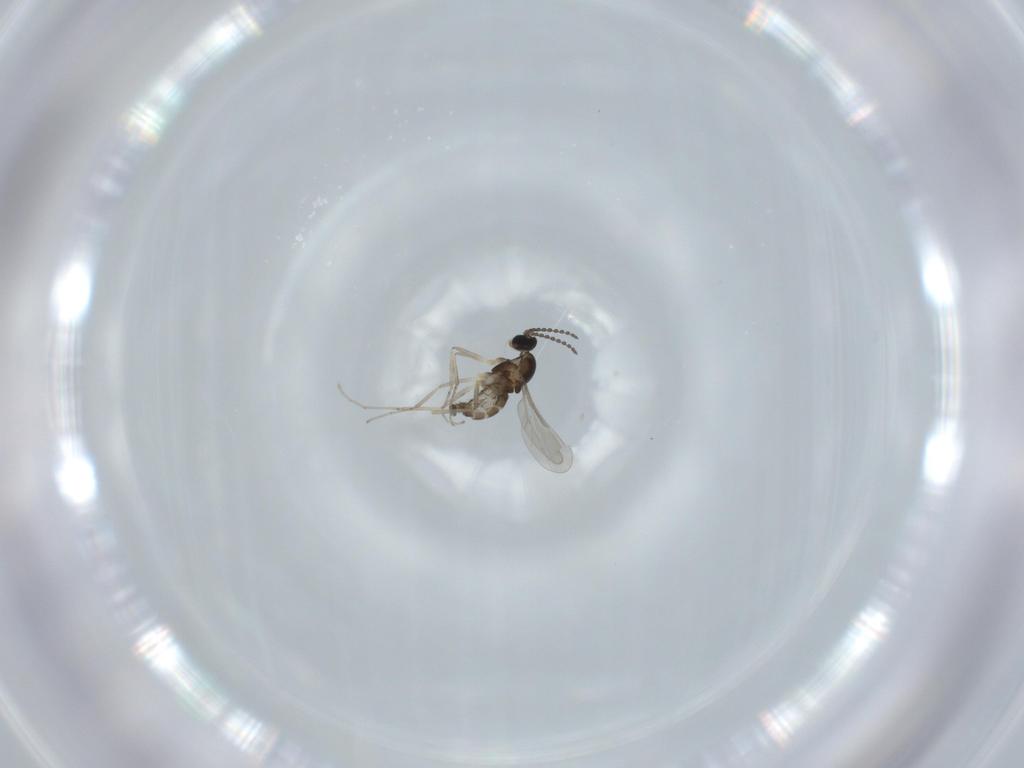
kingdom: Animalia
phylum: Arthropoda
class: Insecta
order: Diptera
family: Cecidomyiidae
